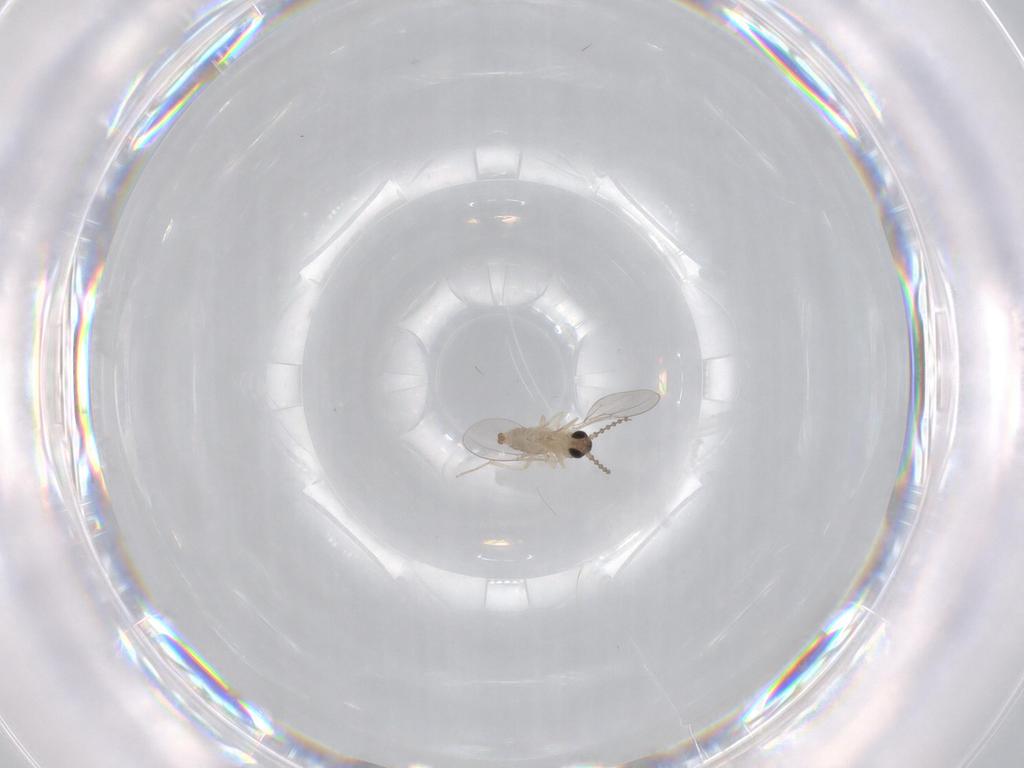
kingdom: Animalia
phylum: Arthropoda
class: Insecta
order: Diptera
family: Cecidomyiidae
